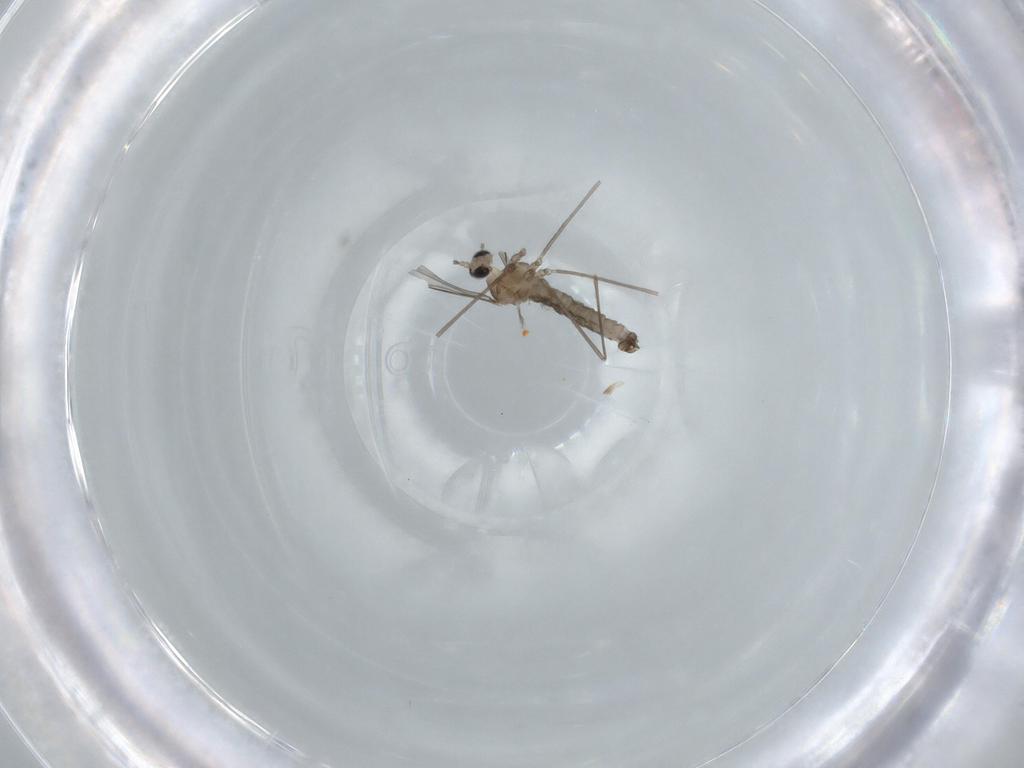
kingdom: Animalia
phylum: Arthropoda
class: Insecta
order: Diptera
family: Cecidomyiidae
